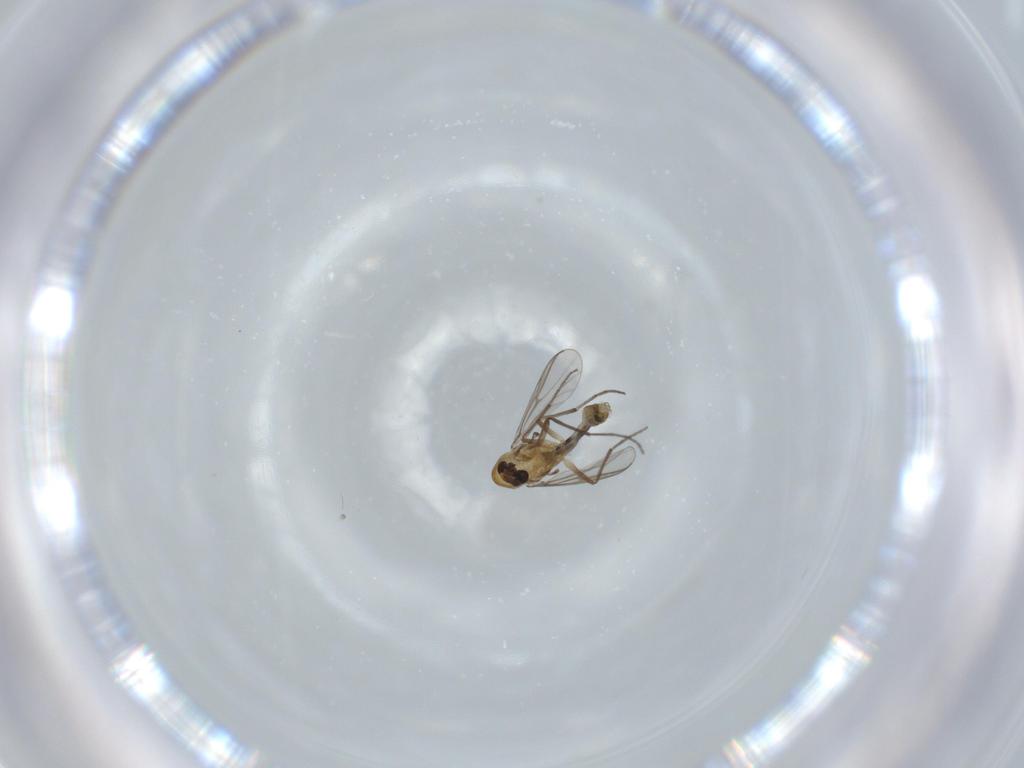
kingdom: Animalia
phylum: Arthropoda
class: Insecta
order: Diptera
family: Chironomidae
